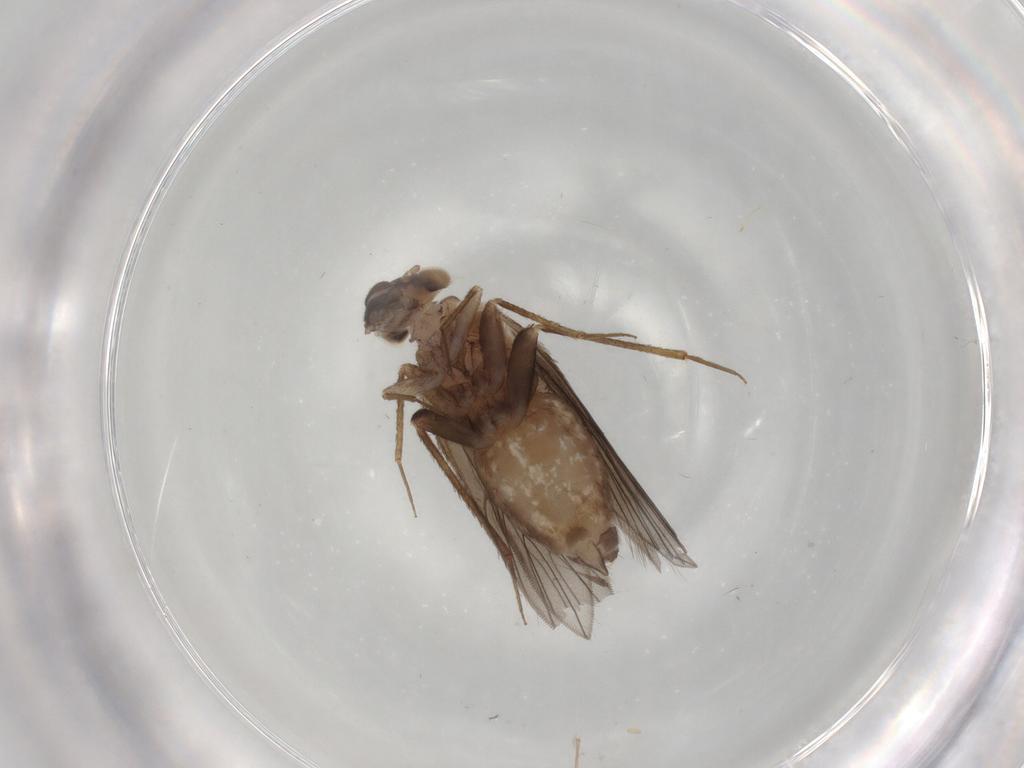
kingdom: Animalia
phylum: Arthropoda
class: Insecta
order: Psocodea
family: Lepidopsocidae
